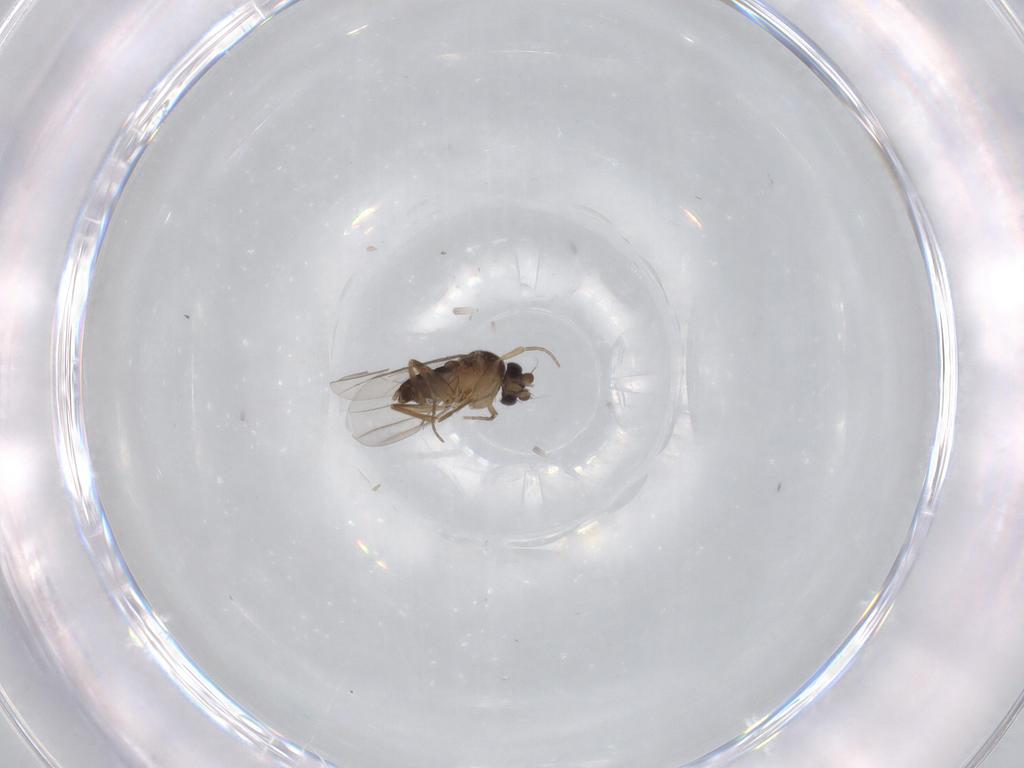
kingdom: Animalia
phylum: Arthropoda
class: Insecta
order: Diptera
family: Phoridae
